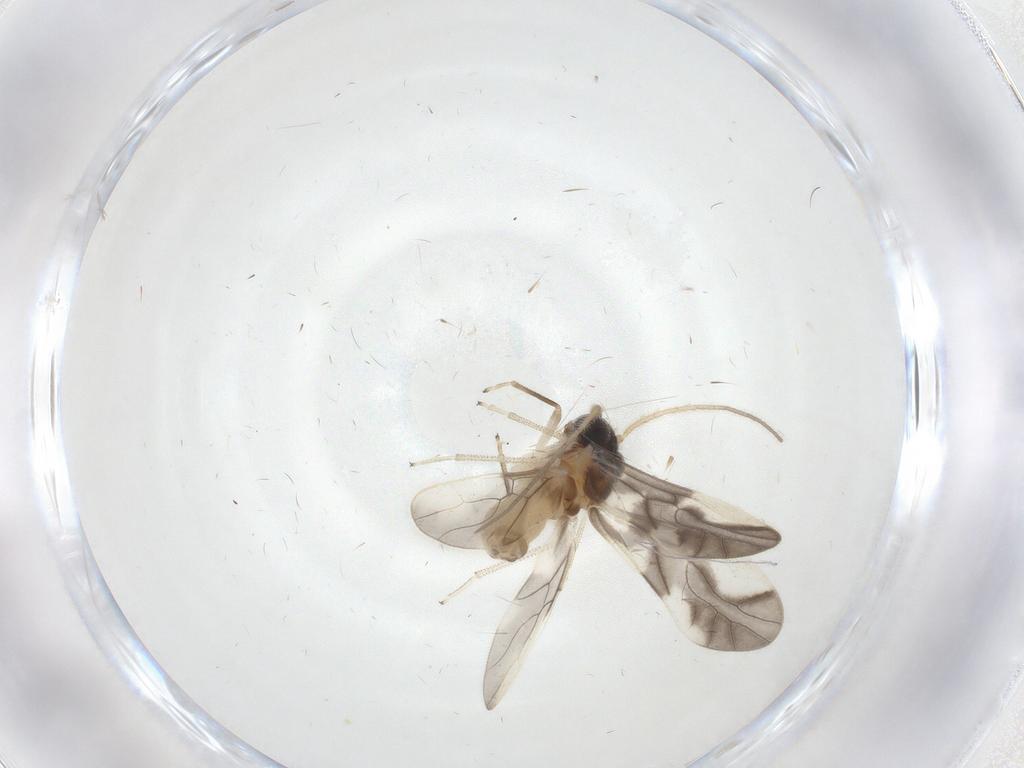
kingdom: Animalia
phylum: Arthropoda
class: Insecta
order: Psocodea
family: Caeciliusidae
